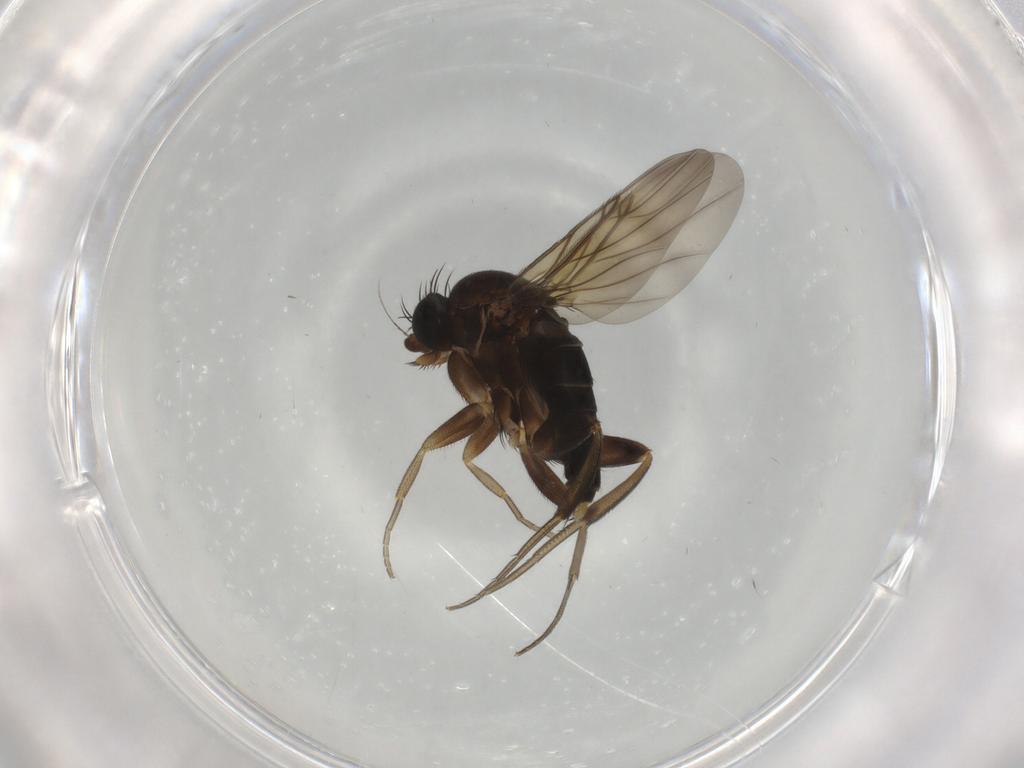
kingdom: Animalia
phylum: Arthropoda
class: Insecta
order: Diptera
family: Phoridae
